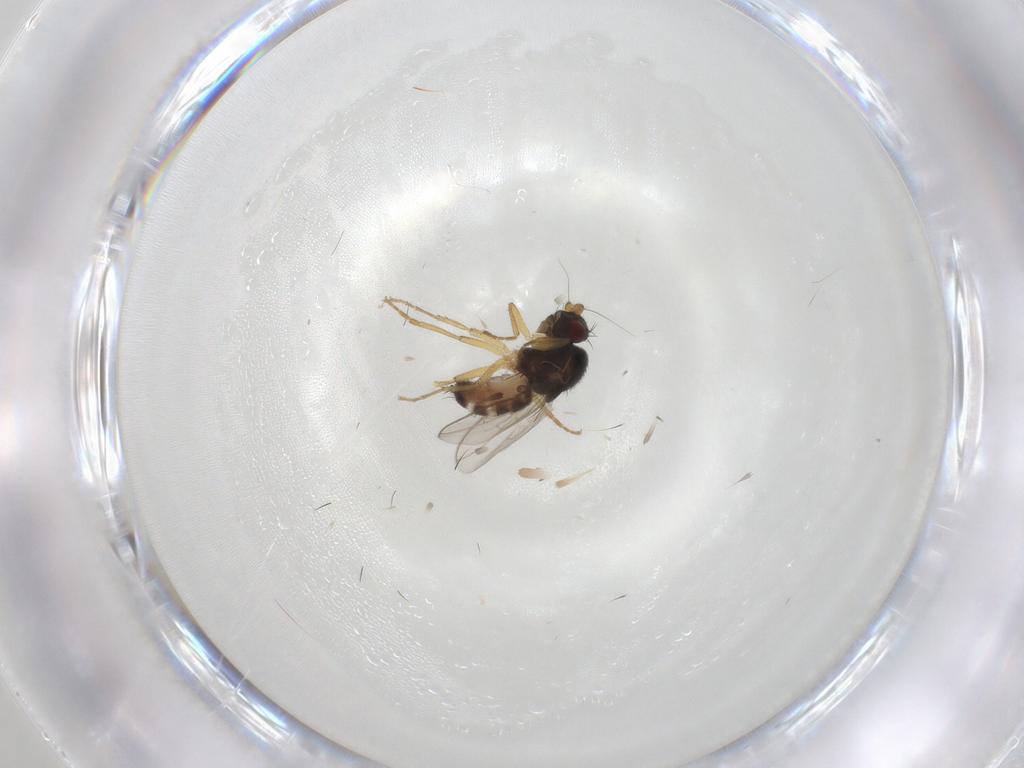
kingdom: Animalia
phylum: Arthropoda
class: Insecta
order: Diptera
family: Sphaeroceridae
